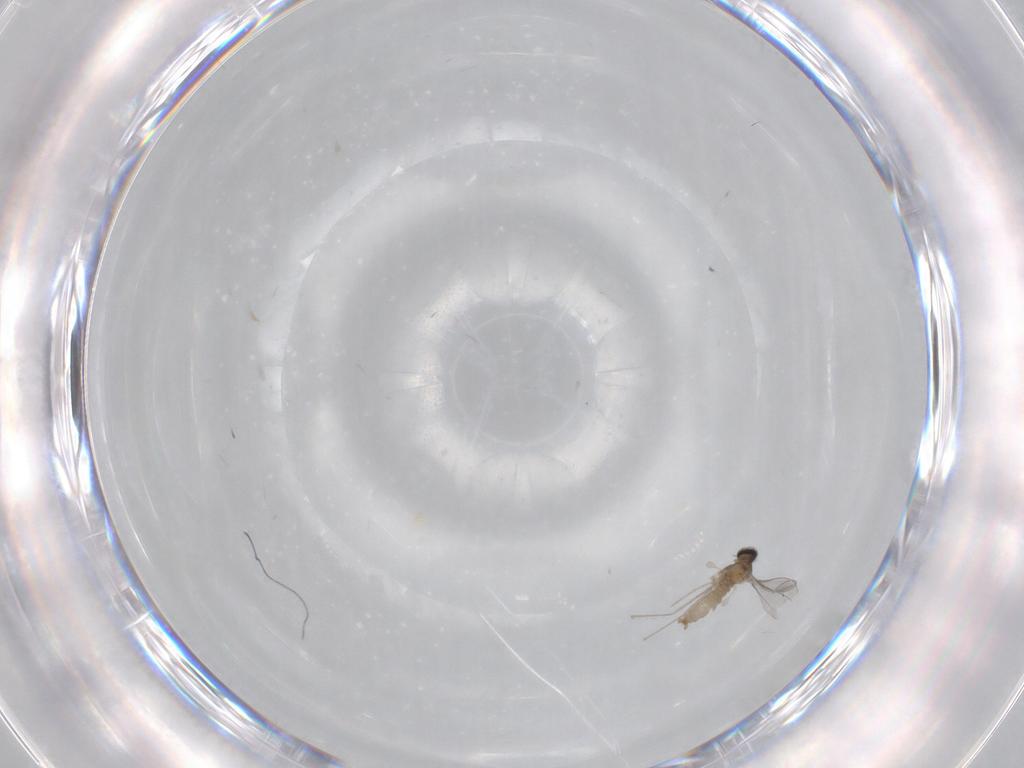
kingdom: Animalia
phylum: Arthropoda
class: Insecta
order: Diptera
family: Cecidomyiidae
